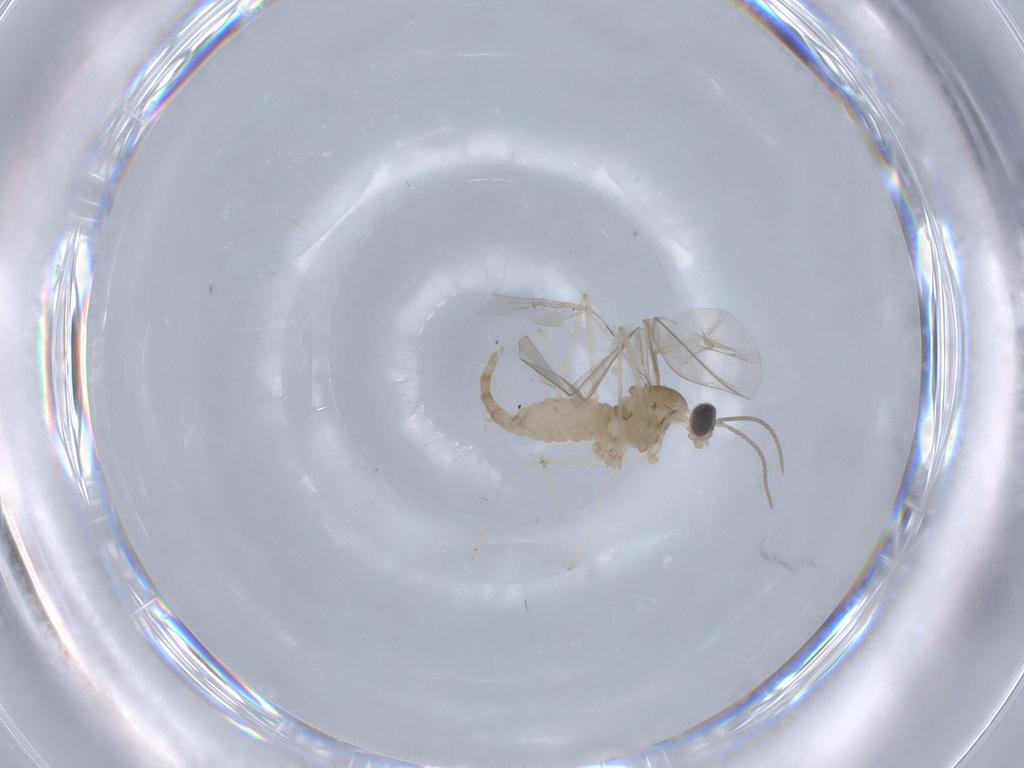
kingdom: Animalia
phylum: Arthropoda
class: Insecta
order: Diptera
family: Cecidomyiidae
